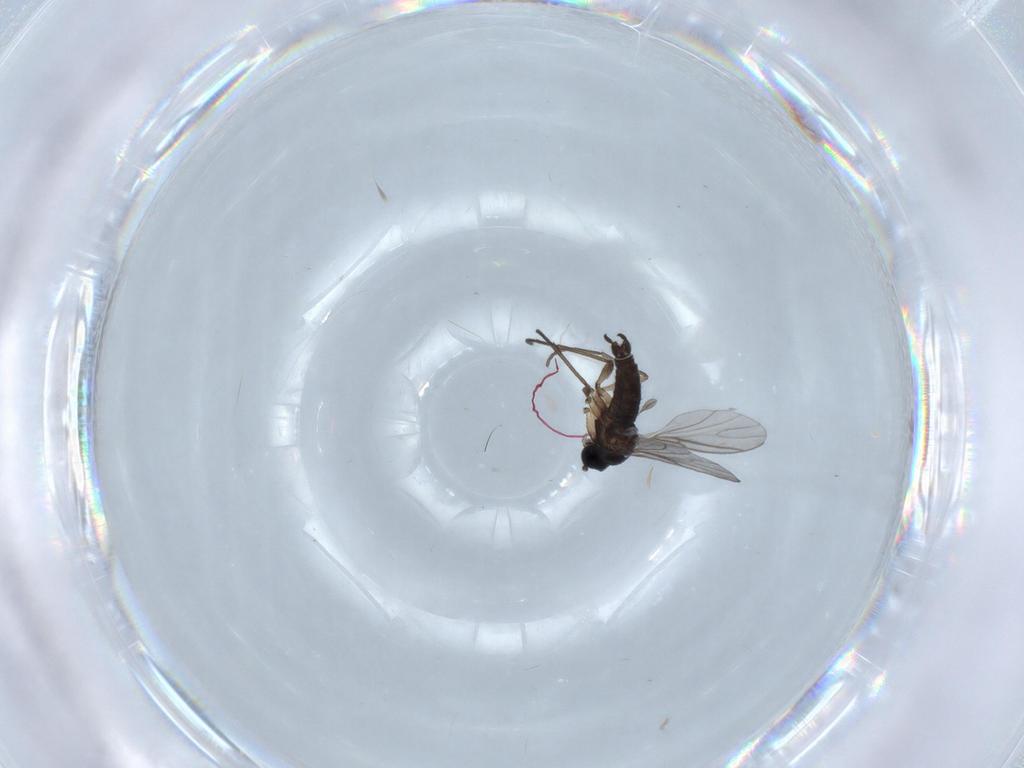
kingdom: Animalia
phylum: Arthropoda
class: Insecta
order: Diptera
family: Sciaridae
